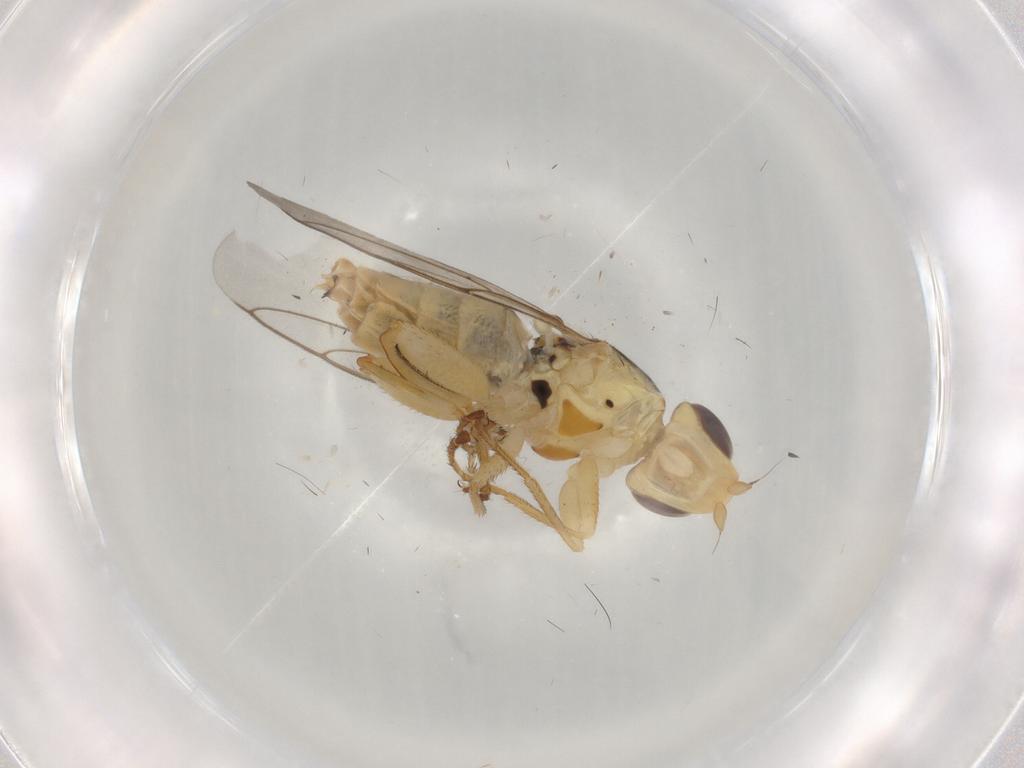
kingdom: Animalia
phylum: Arthropoda
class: Insecta
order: Diptera
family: Chloropidae
